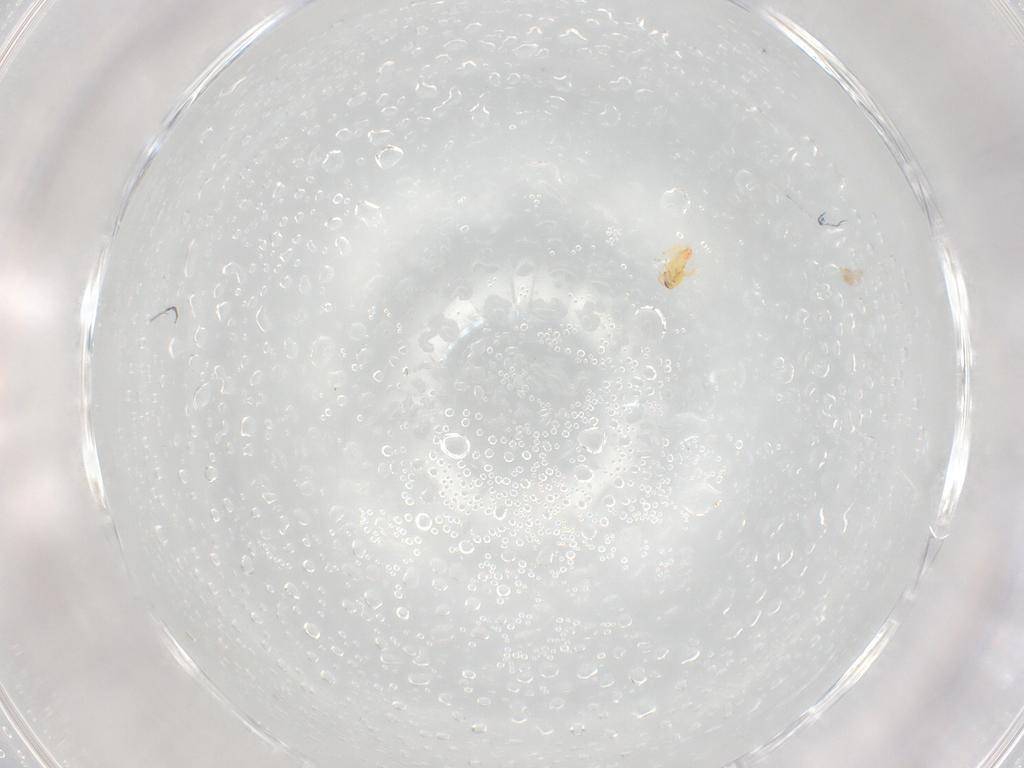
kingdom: Animalia
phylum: Arthropoda
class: Insecta
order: Hymenoptera
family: Trichogrammatidae
